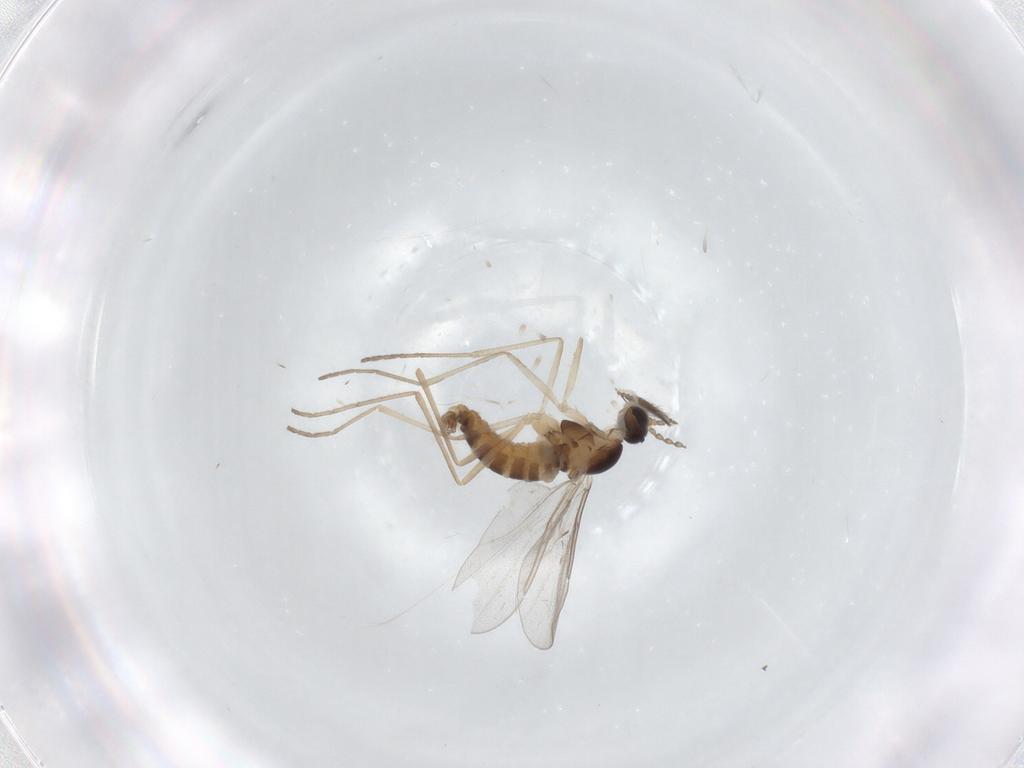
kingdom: Animalia
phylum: Arthropoda
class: Insecta
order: Diptera
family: Cecidomyiidae
